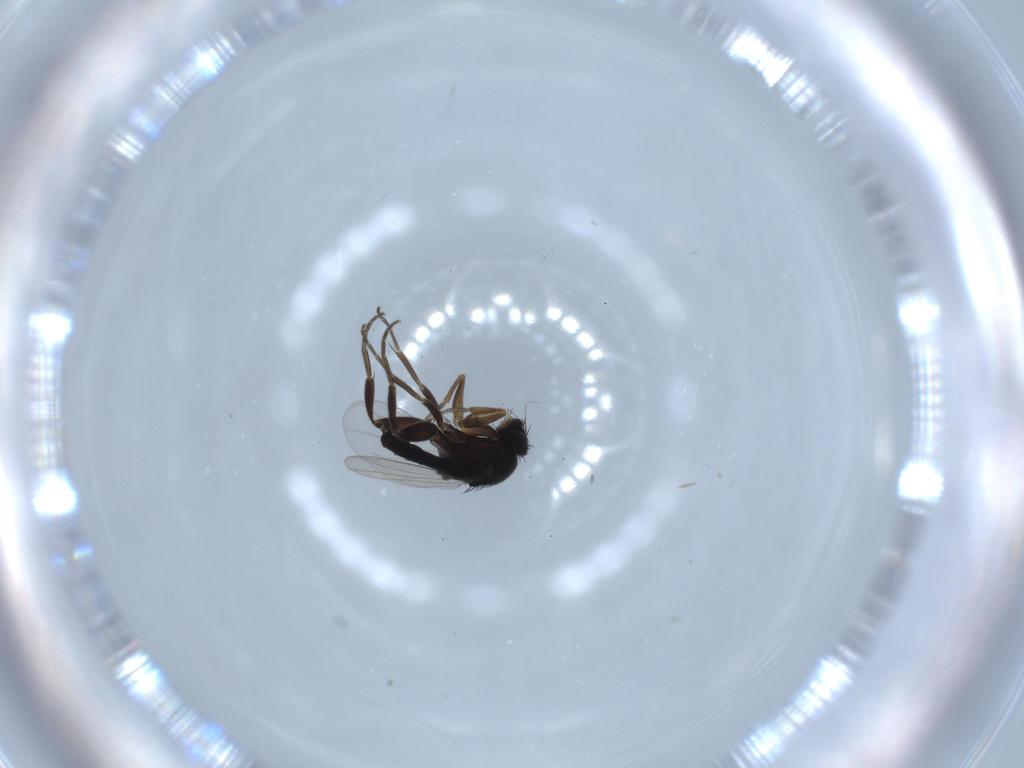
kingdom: Animalia
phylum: Arthropoda
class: Insecta
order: Diptera
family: Phoridae
